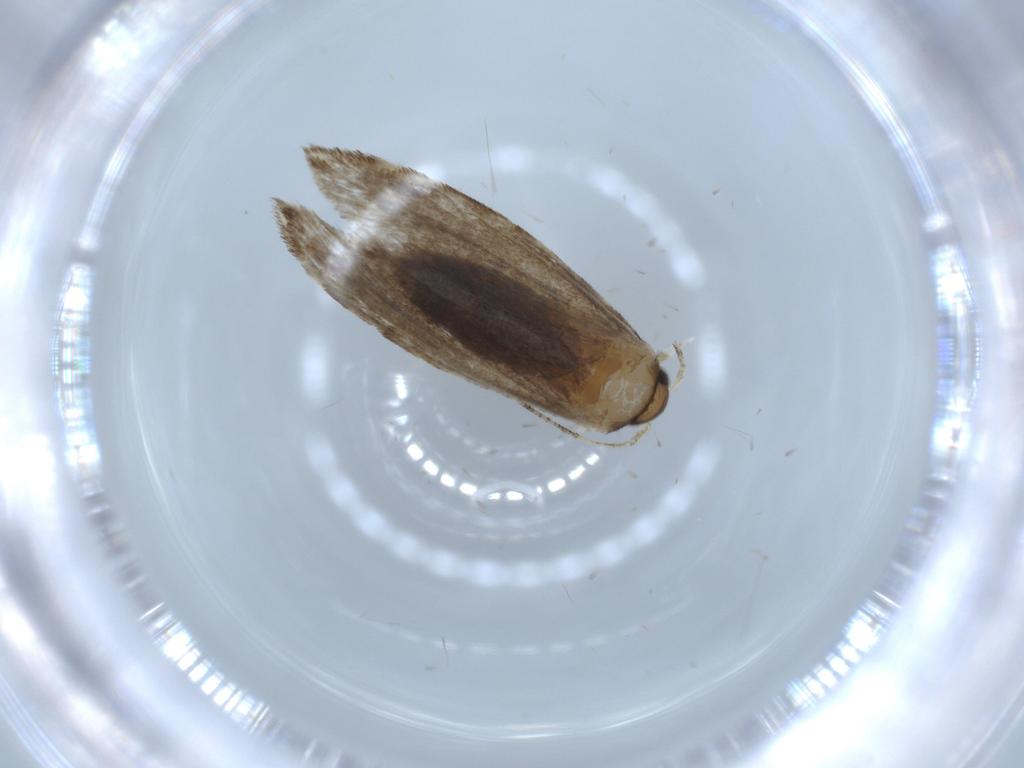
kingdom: Animalia
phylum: Arthropoda
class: Insecta
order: Lepidoptera
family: Tineidae
